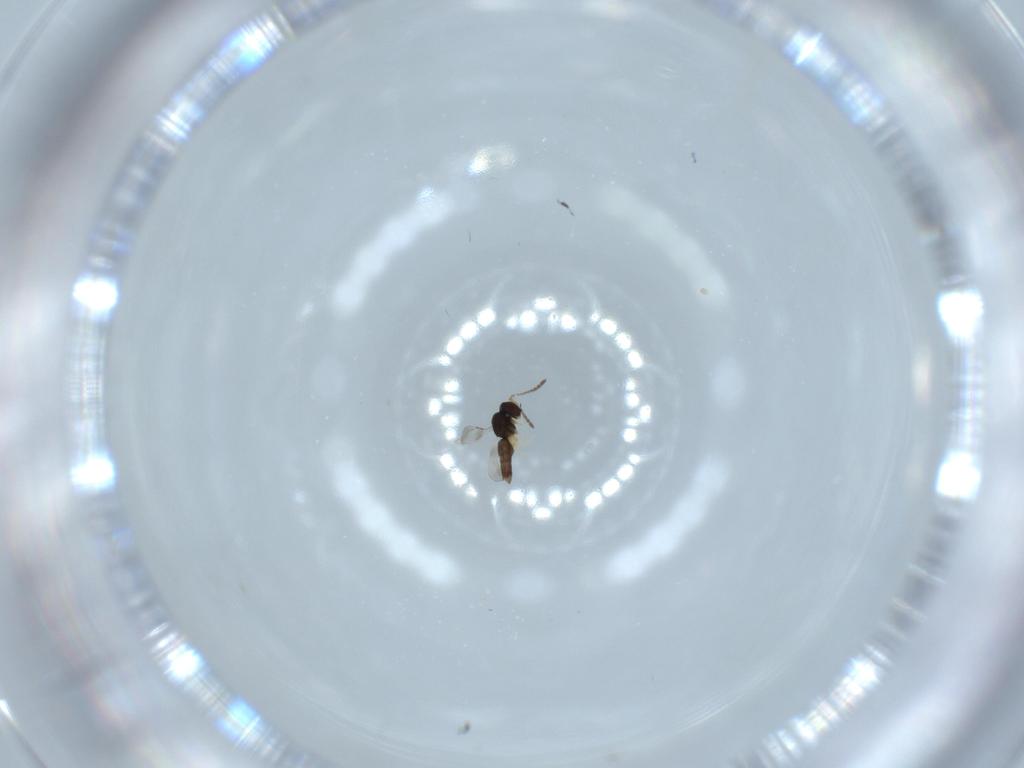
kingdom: Animalia
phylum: Arthropoda
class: Insecta
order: Hymenoptera
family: Ceraphronidae
